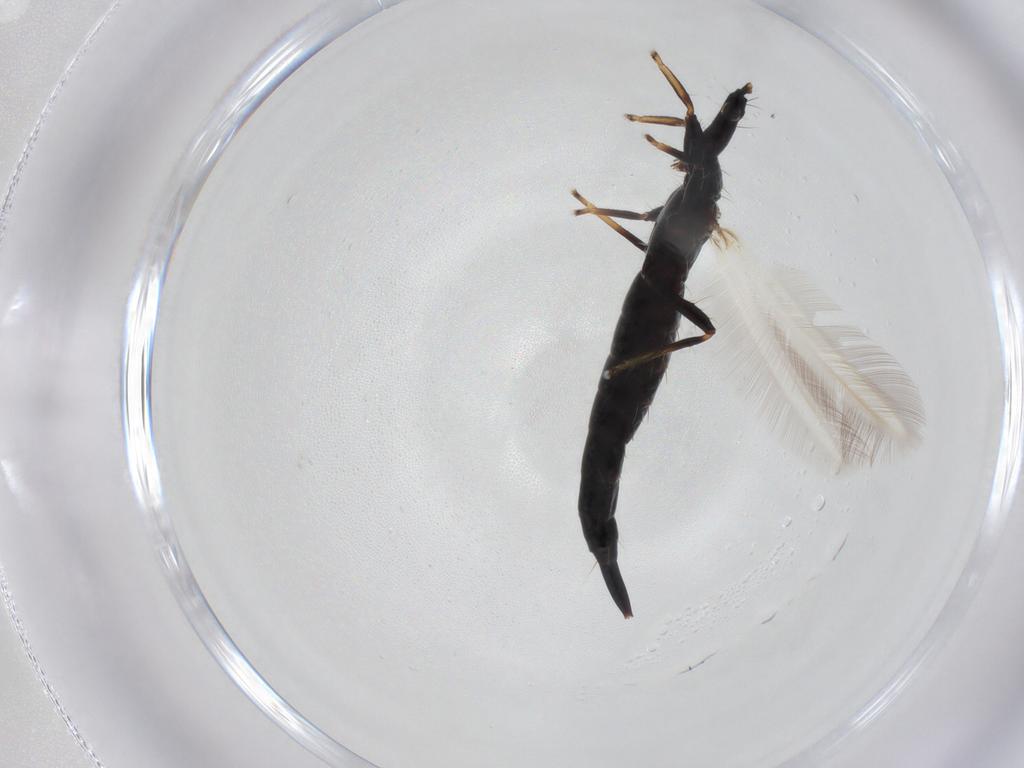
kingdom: Animalia
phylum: Arthropoda
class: Insecta
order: Thysanoptera
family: Phlaeothripidae
